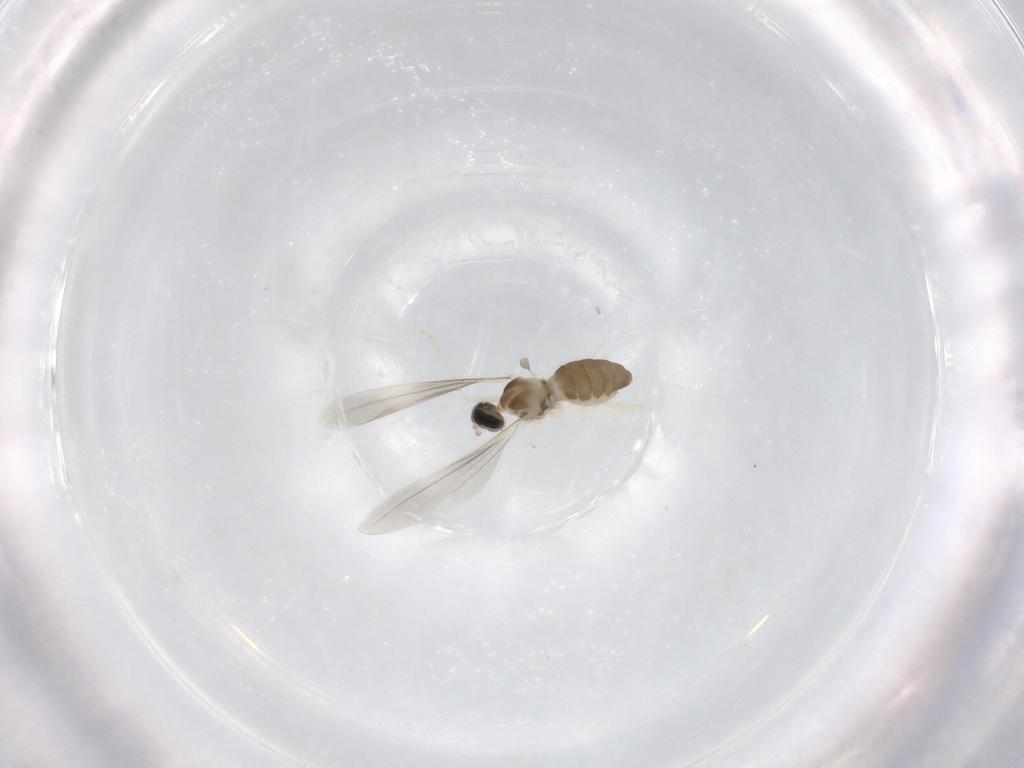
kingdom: Animalia
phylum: Arthropoda
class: Insecta
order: Diptera
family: Cecidomyiidae
